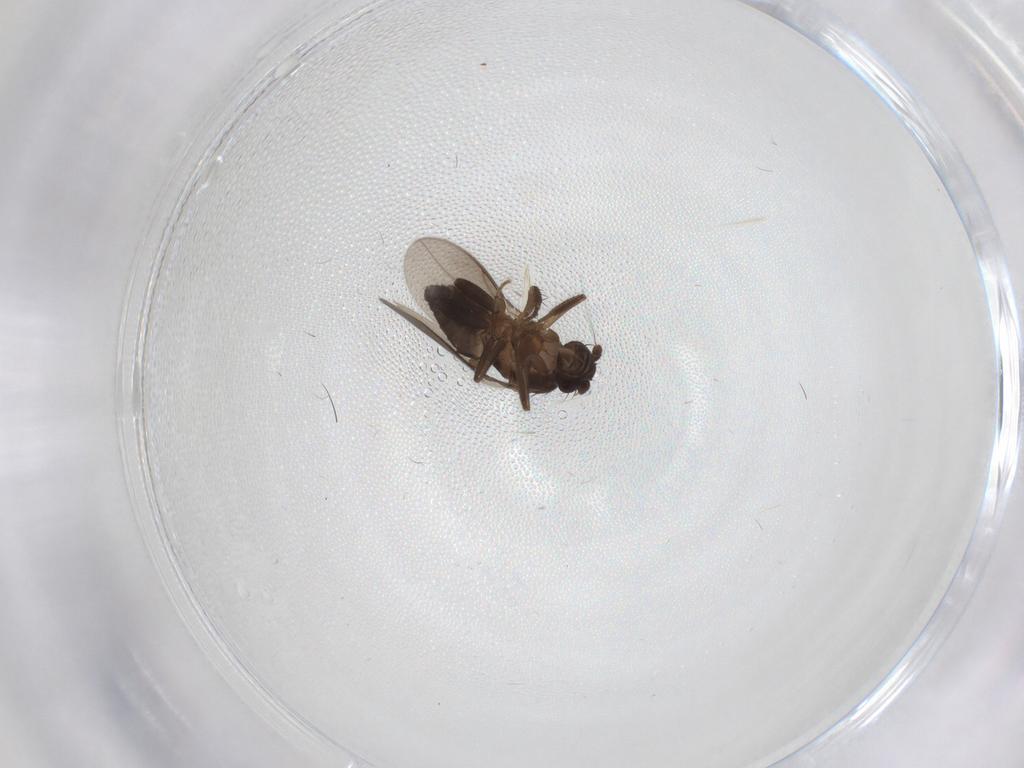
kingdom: Animalia
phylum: Arthropoda
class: Insecta
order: Diptera
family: Sphaeroceridae
